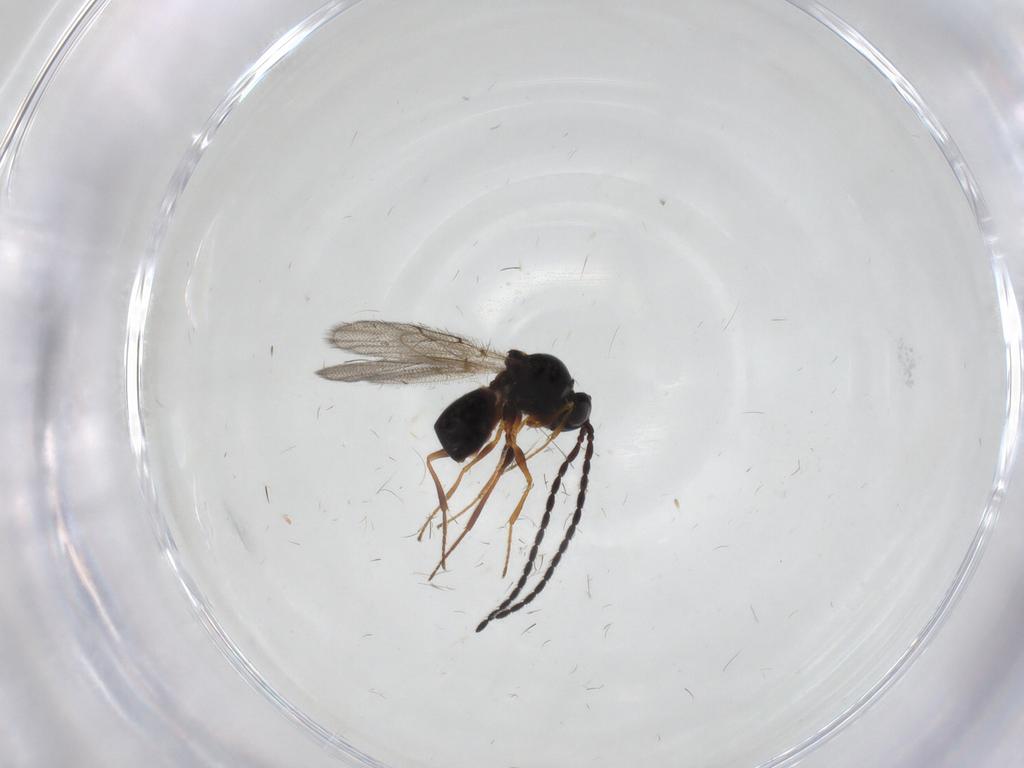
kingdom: Animalia
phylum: Arthropoda
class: Insecta
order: Hymenoptera
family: Figitidae
